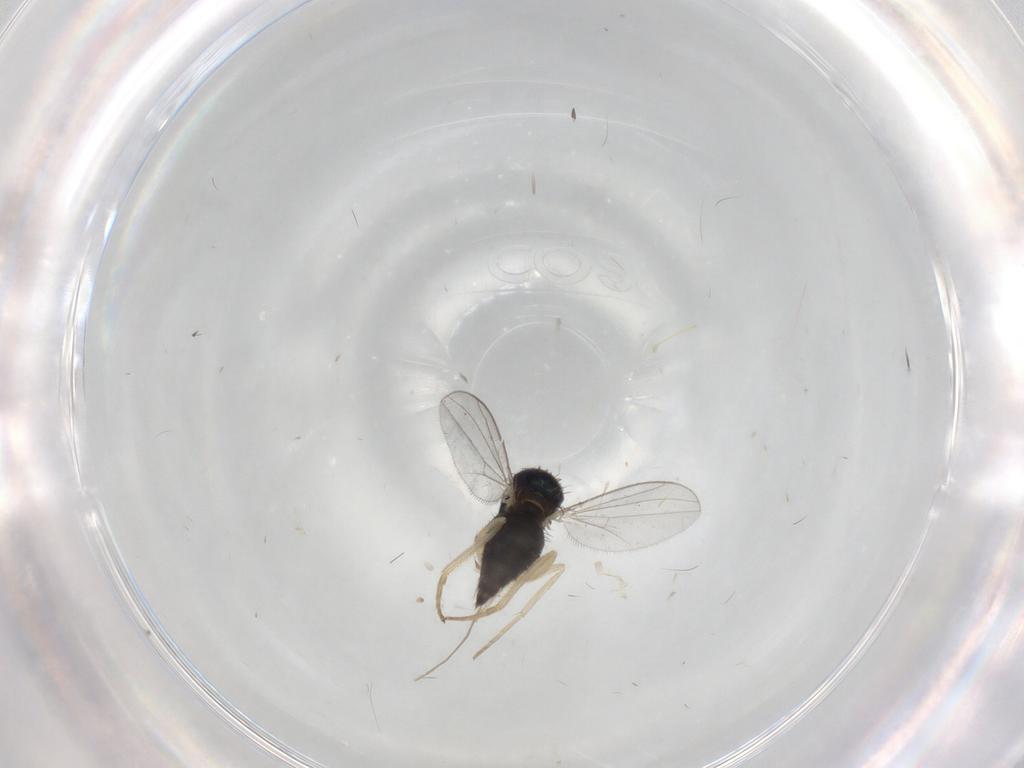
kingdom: Animalia
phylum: Arthropoda
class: Insecta
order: Diptera
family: Dolichopodidae
